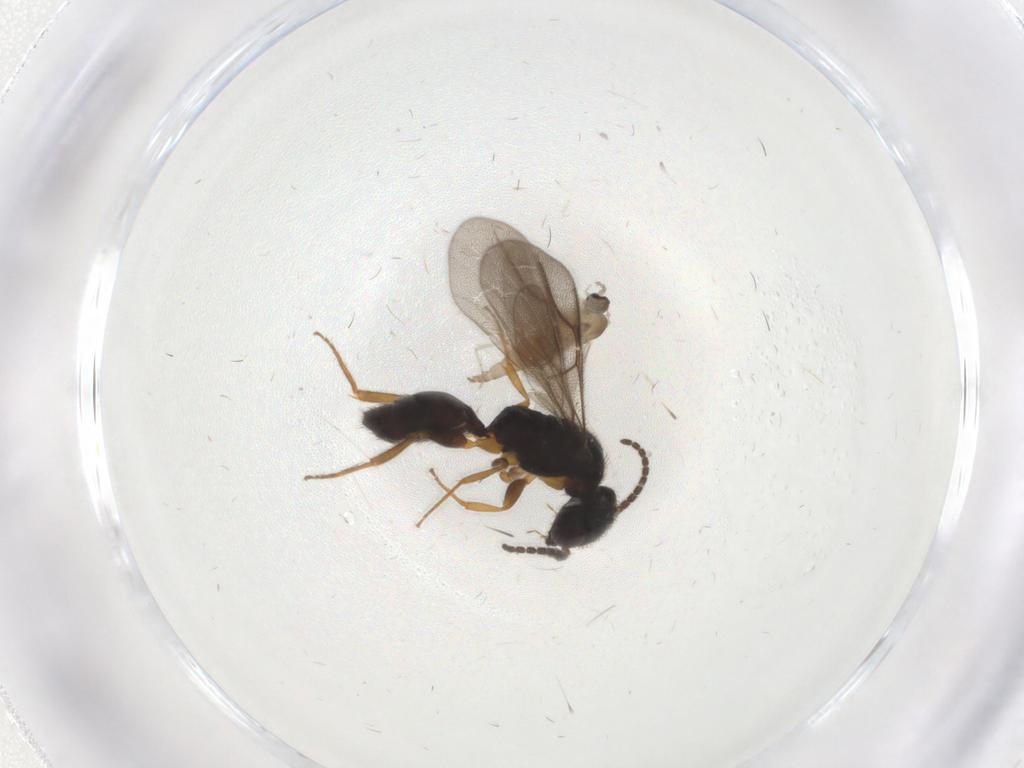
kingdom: Animalia
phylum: Arthropoda
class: Insecta
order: Diptera
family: Cecidomyiidae
